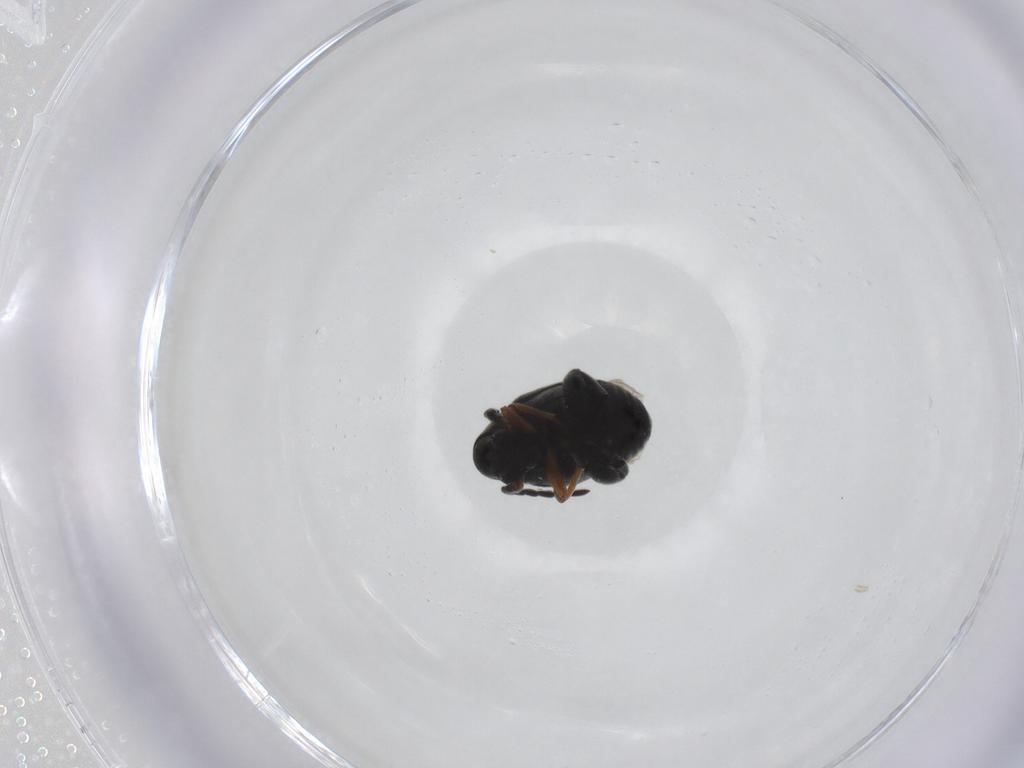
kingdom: Animalia
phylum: Arthropoda
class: Insecta
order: Coleoptera
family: Chrysomelidae
